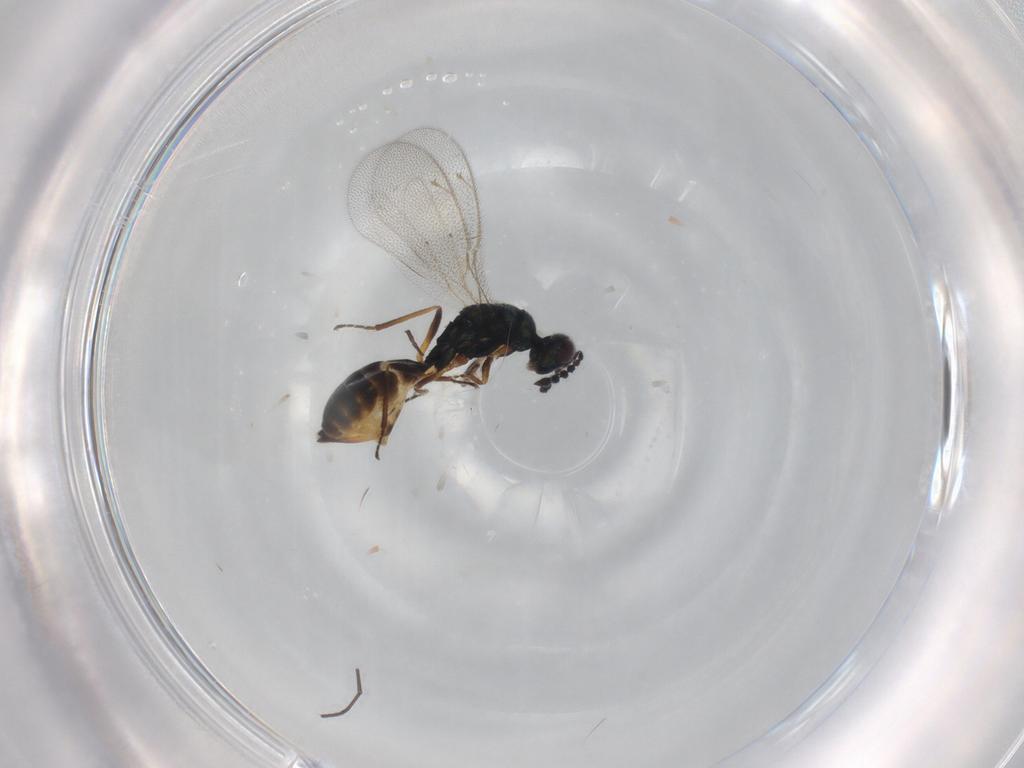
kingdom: Animalia
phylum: Arthropoda
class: Insecta
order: Hymenoptera
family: Eulophidae
